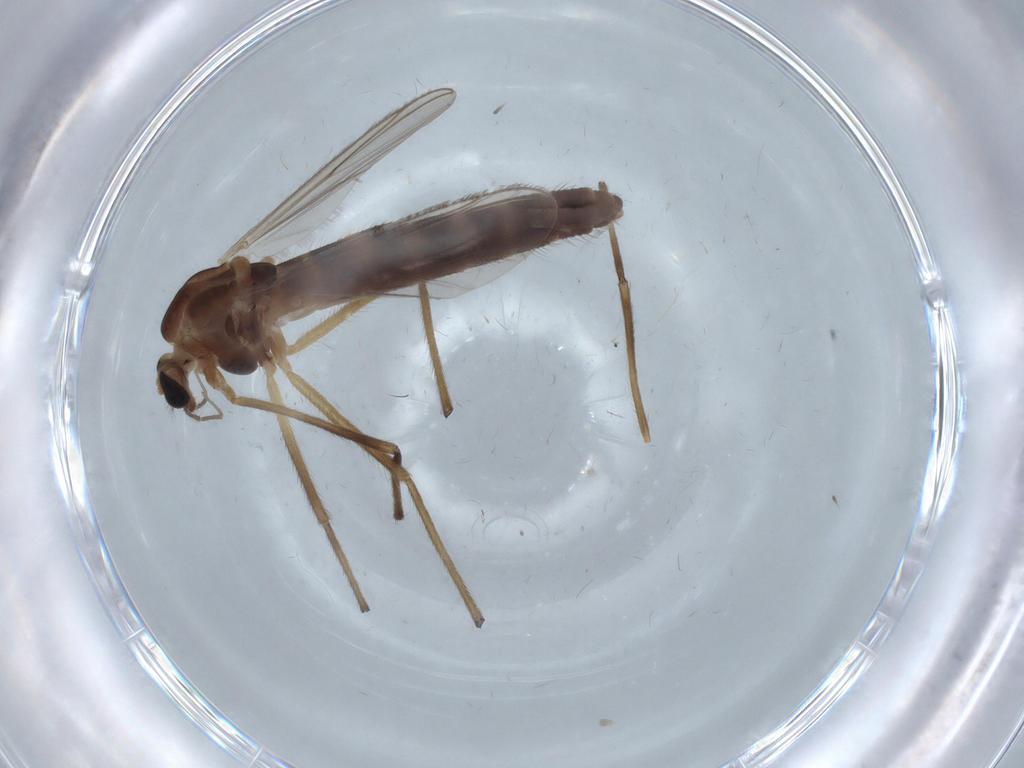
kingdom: Animalia
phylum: Arthropoda
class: Insecta
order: Diptera
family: Chironomidae
